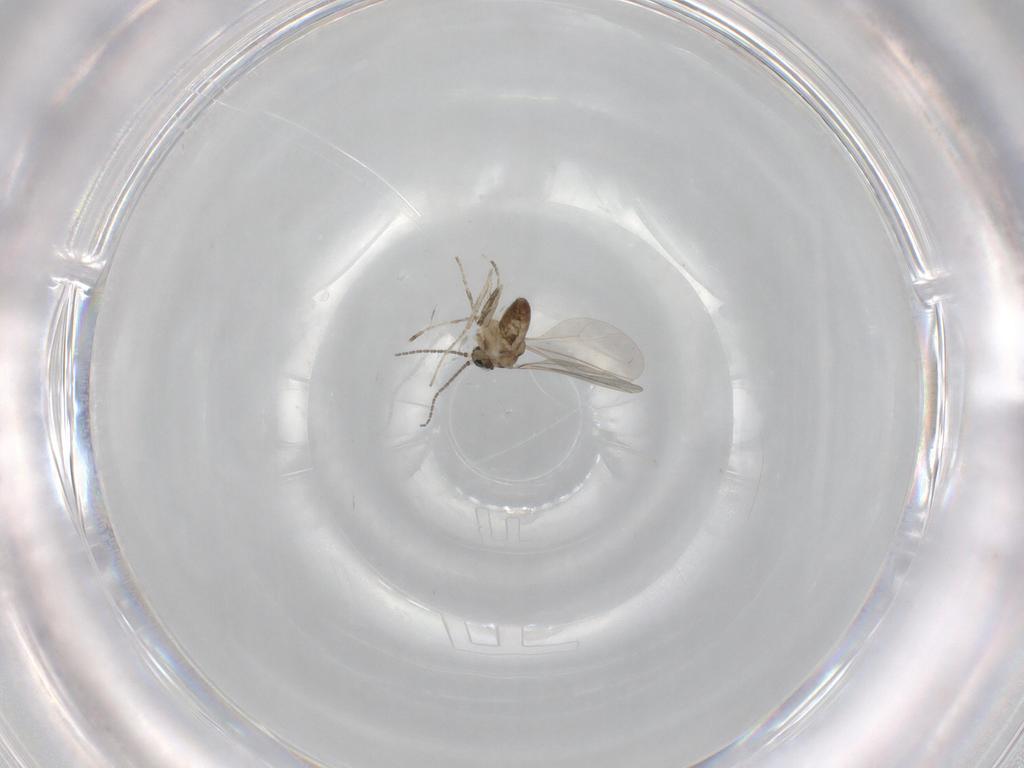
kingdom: Animalia
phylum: Arthropoda
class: Insecta
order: Diptera
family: Cecidomyiidae
